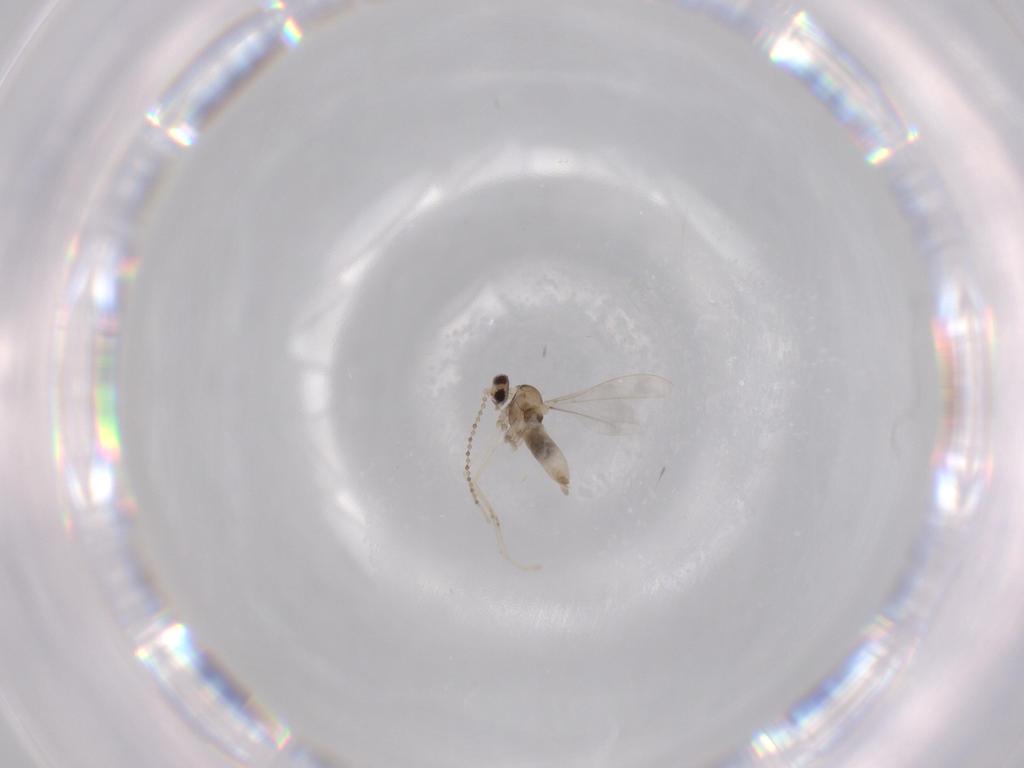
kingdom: Animalia
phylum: Arthropoda
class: Insecta
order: Diptera
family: Cecidomyiidae
